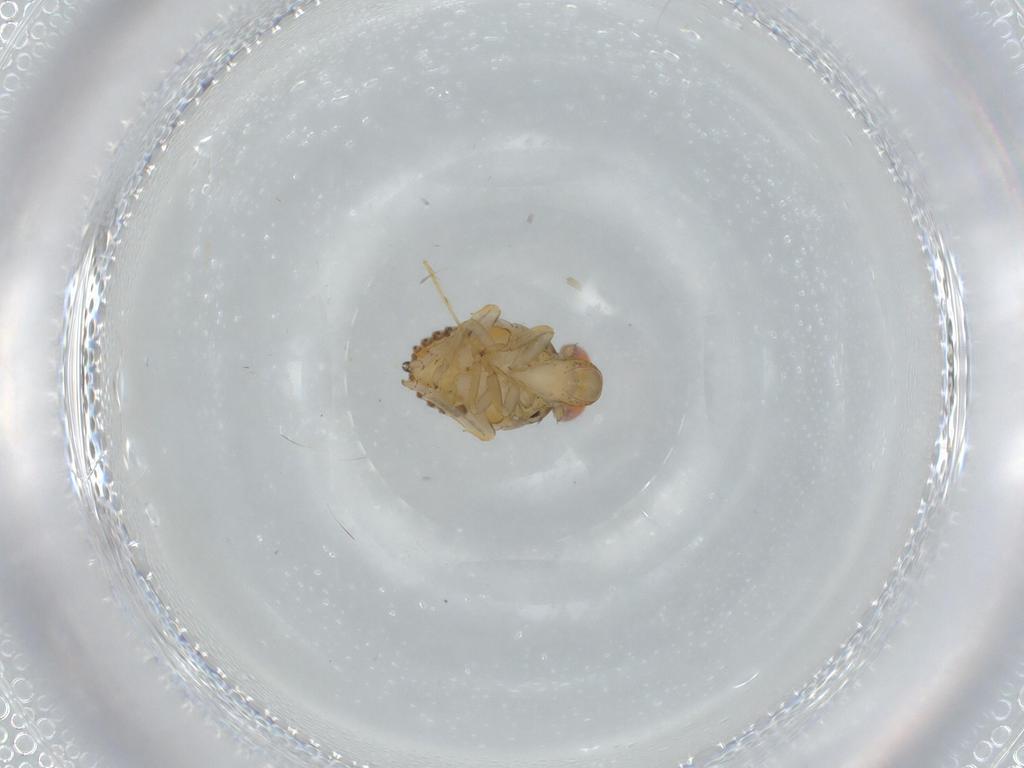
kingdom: Animalia
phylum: Arthropoda
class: Insecta
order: Hemiptera
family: Issidae
